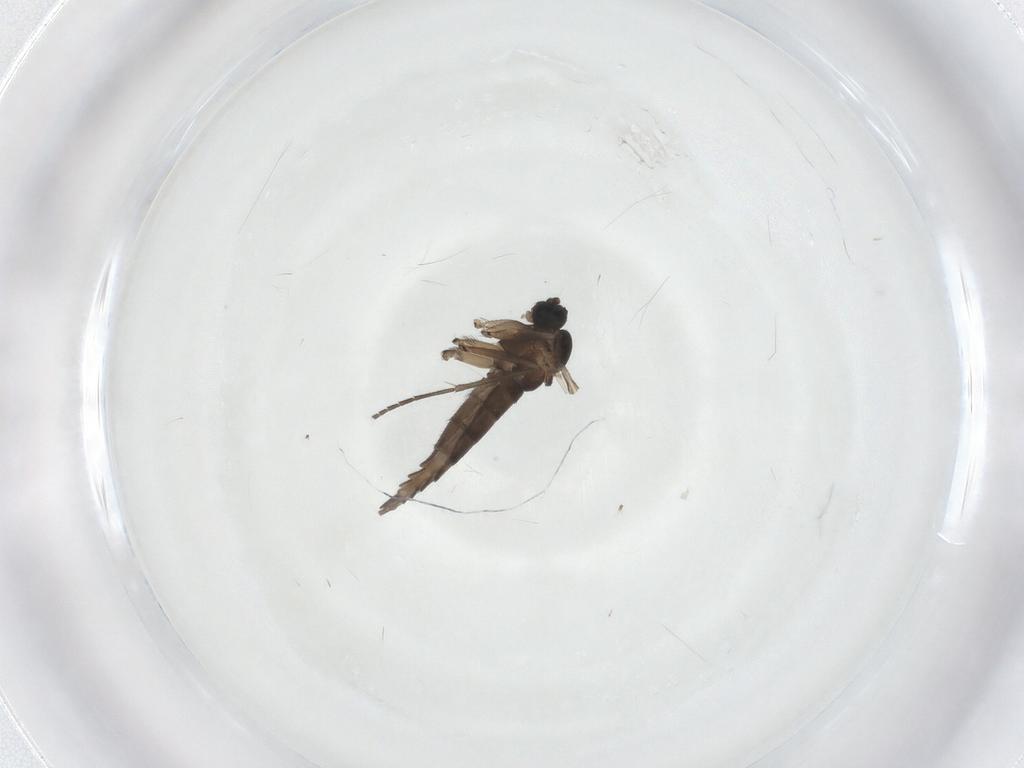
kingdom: Animalia
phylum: Arthropoda
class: Insecta
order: Diptera
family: Sciaridae
